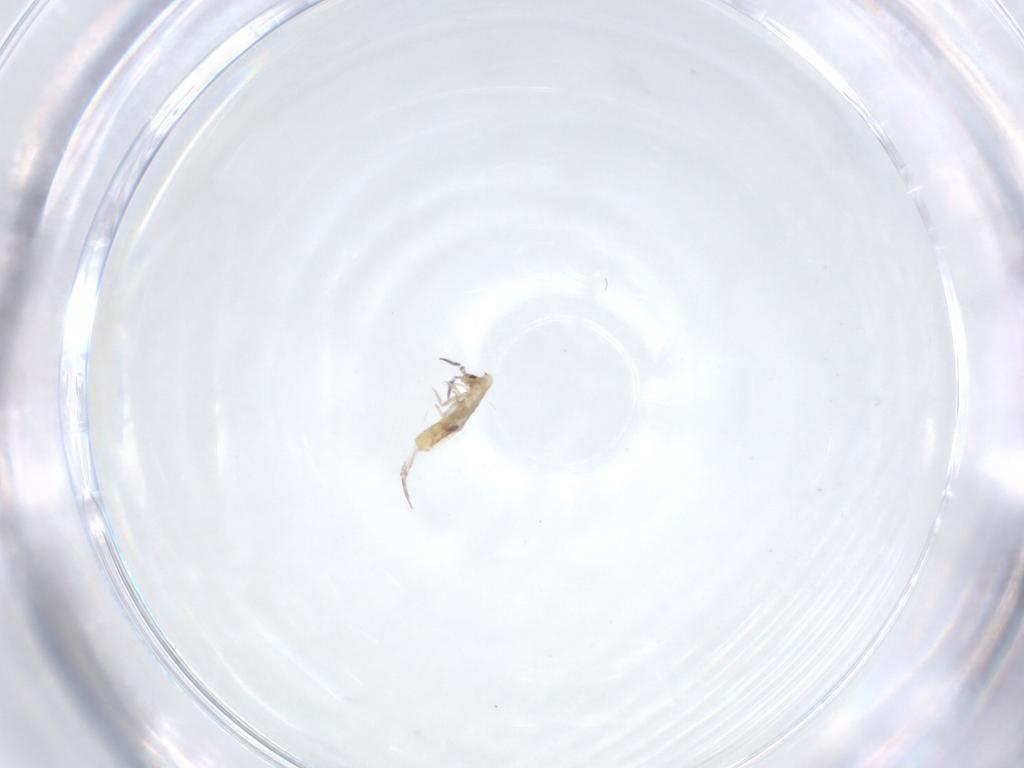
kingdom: Animalia
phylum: Arthropoda
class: Collembola
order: Entomobryomorpha
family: Entomobryidae
